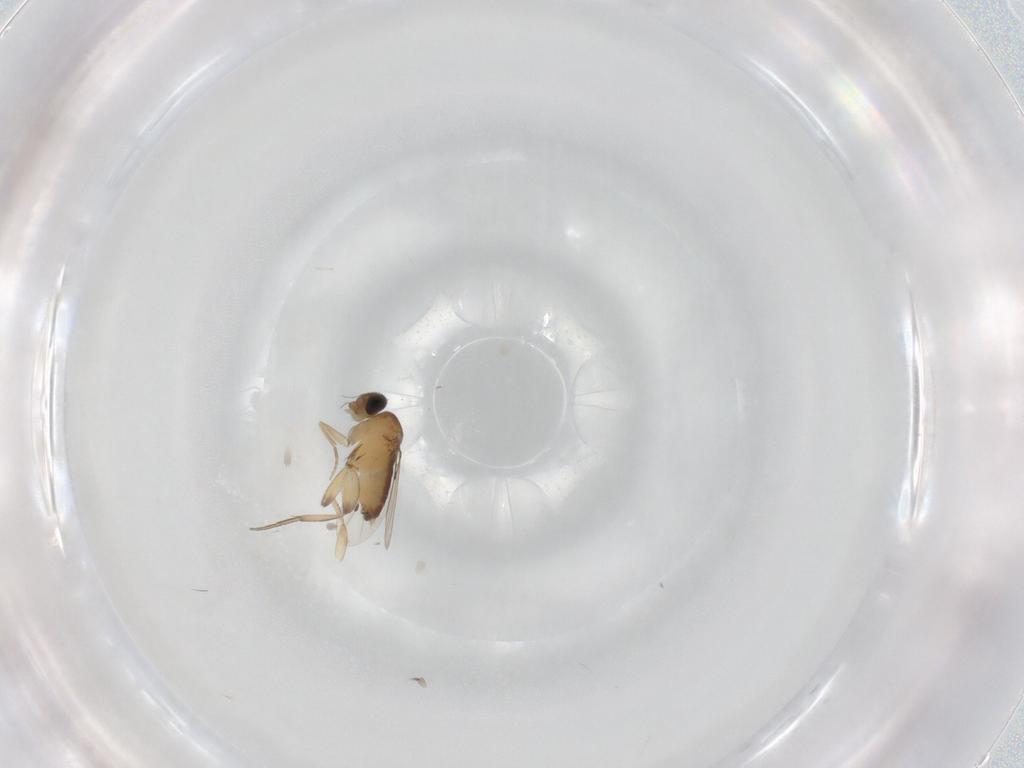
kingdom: Animalia
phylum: Arthropoda
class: Insecta
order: Diptera
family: Phoridae
